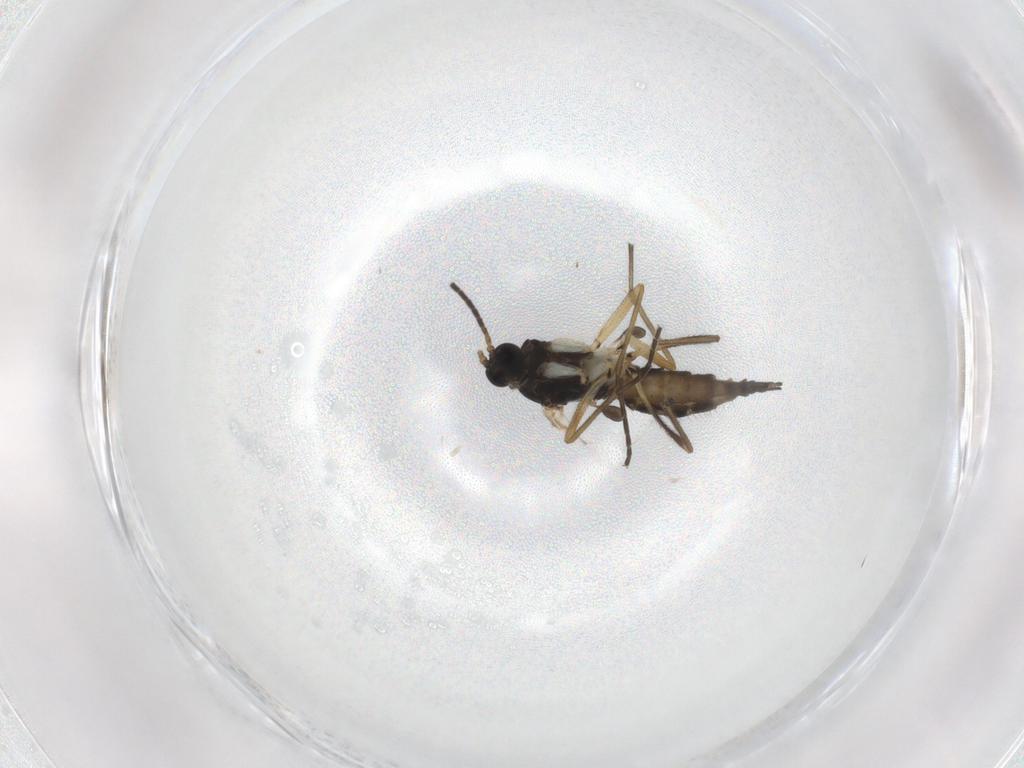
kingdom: Animalia
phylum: Arthropoda
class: Insecta
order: Diptera
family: Sciaridae
